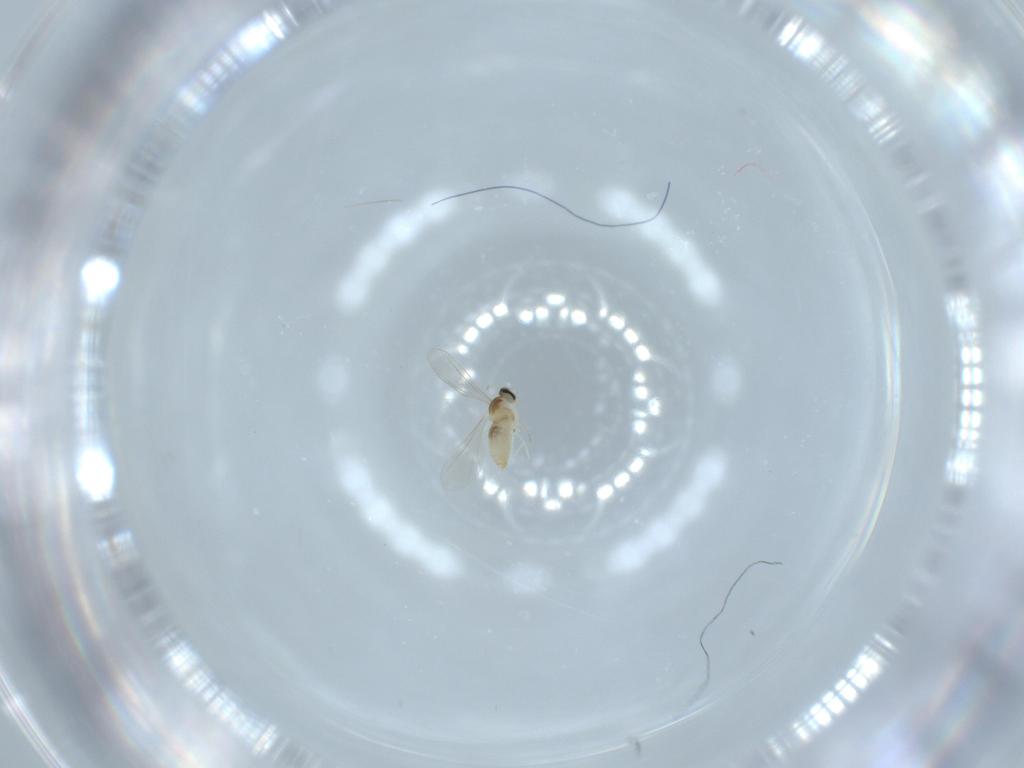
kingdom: Animalia
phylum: Arthropoda
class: Insecta
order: Diptera
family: Cecidomyiidae
